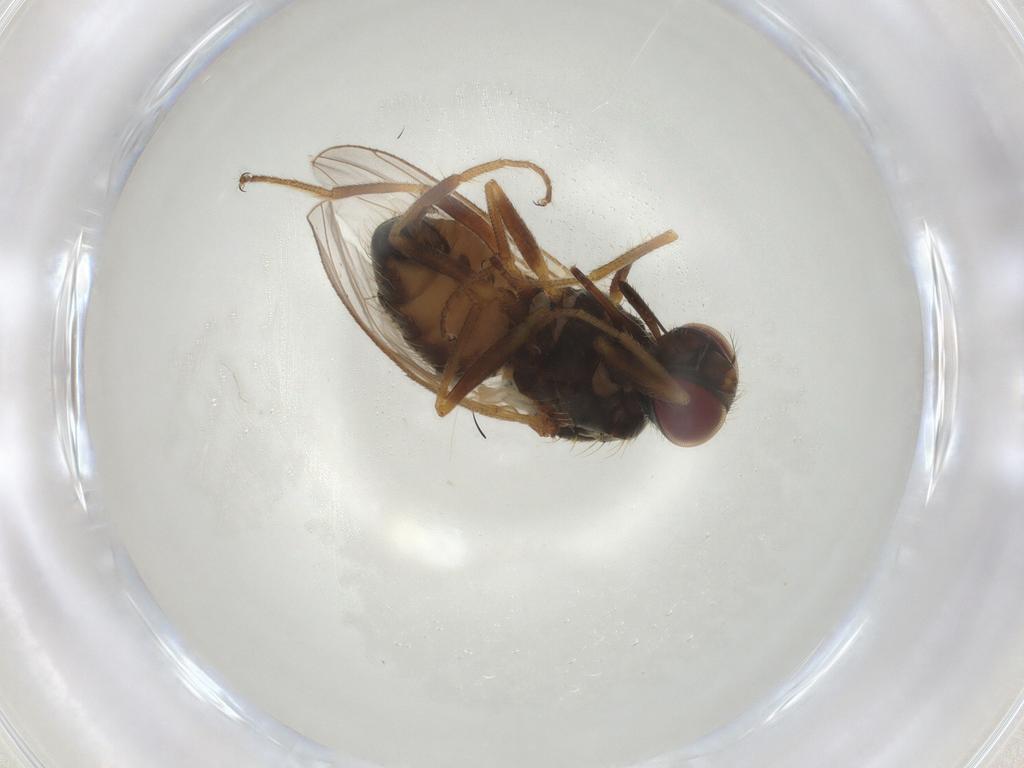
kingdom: Animalia
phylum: Arthropoda
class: Insecta
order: Diptera
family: Muscidae
